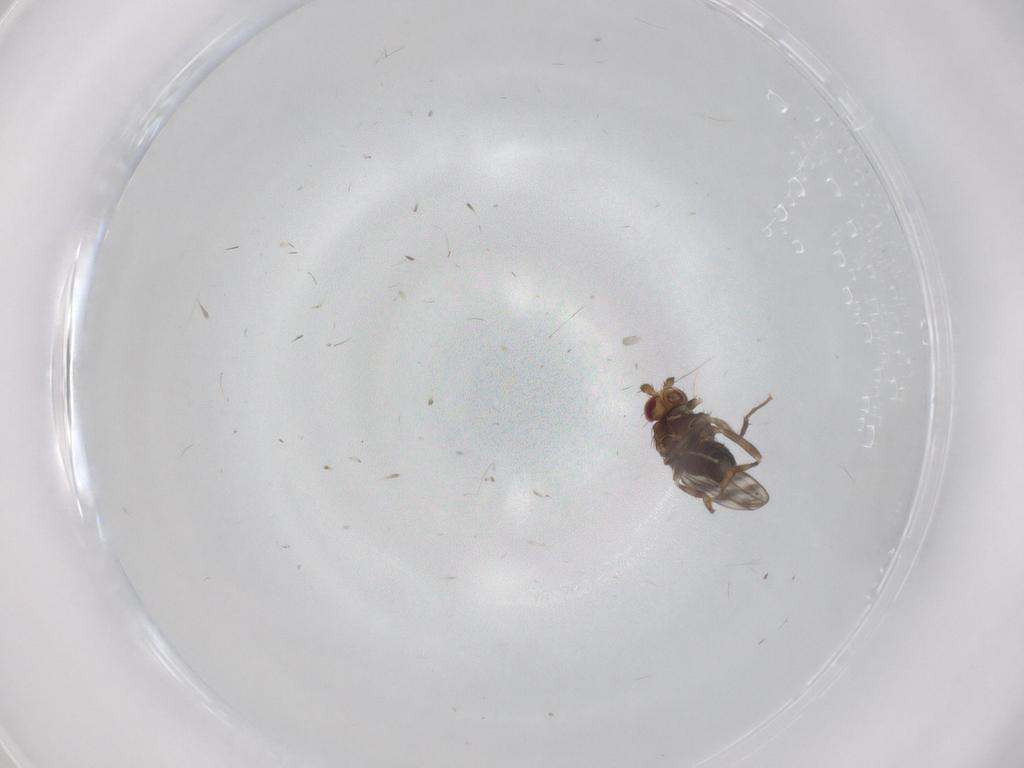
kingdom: Animalia
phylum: Arthropoda
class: Insecta
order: Diptera
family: Sphaeroceridae
